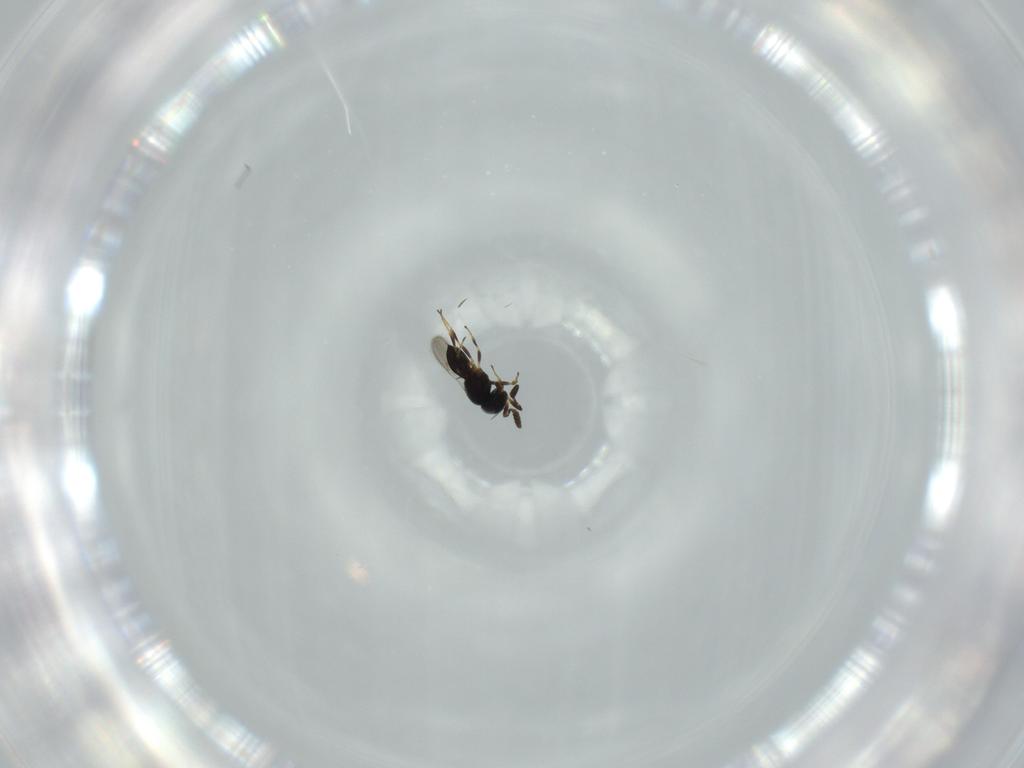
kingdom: Animalia
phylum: Arthropoda
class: Insecta
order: Hymenoptera
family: Scelionidae
